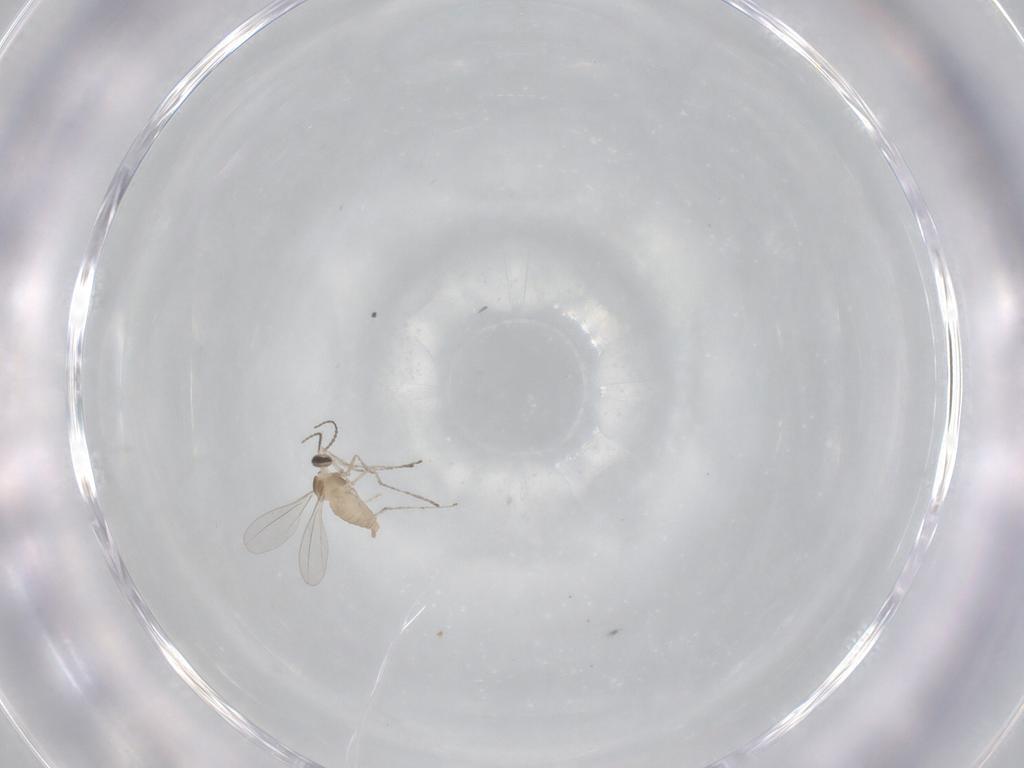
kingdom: Animalia
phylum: Arthropoda
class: Insecta
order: Diptera
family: Cecidomyiidae
